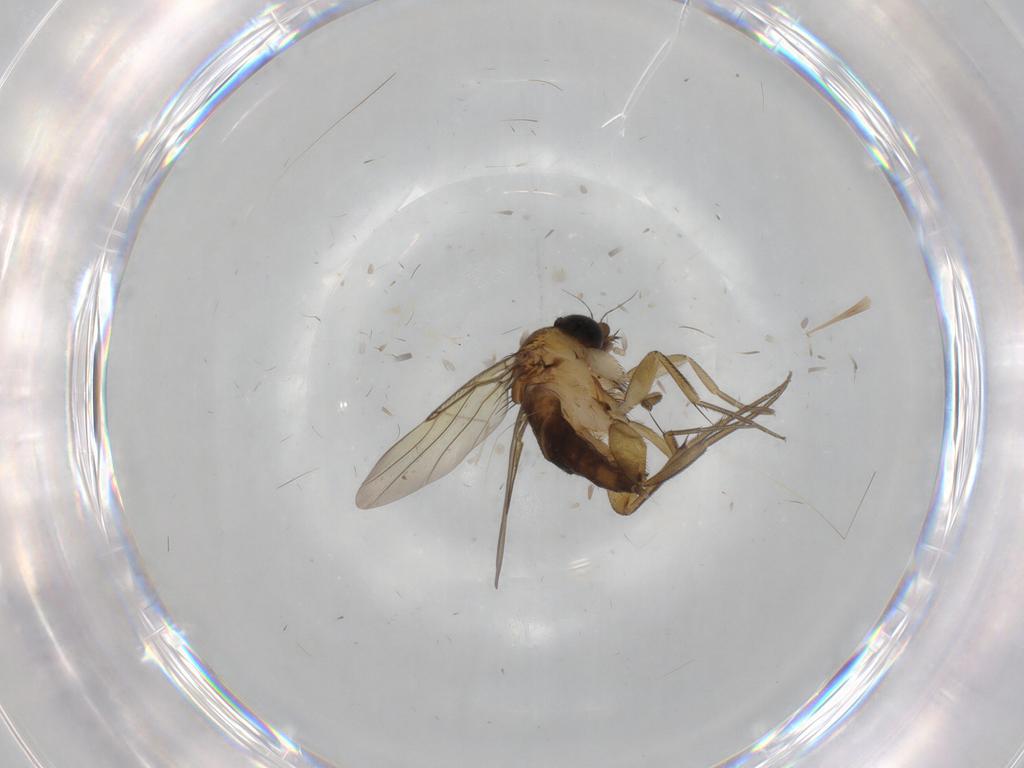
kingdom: Animalia
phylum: Arthropoda
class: Insecta
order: Diptera
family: Phoridae
